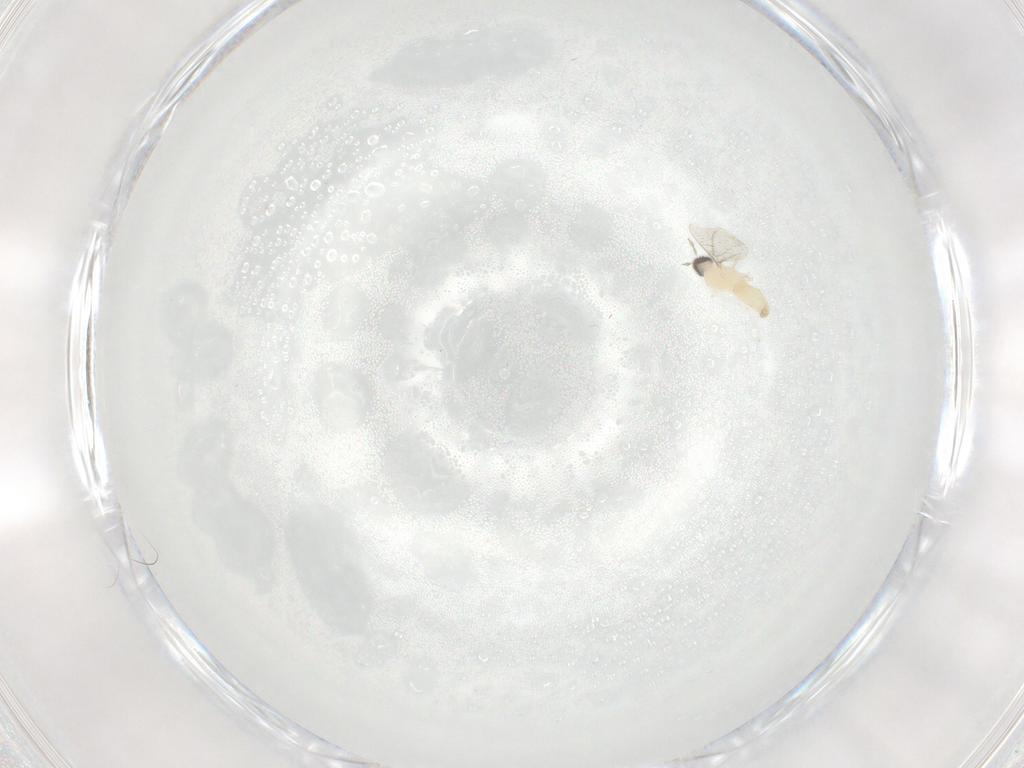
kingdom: Animalia
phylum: Arthropoda
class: Insecta
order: Diptera
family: Cecidomyiidae
